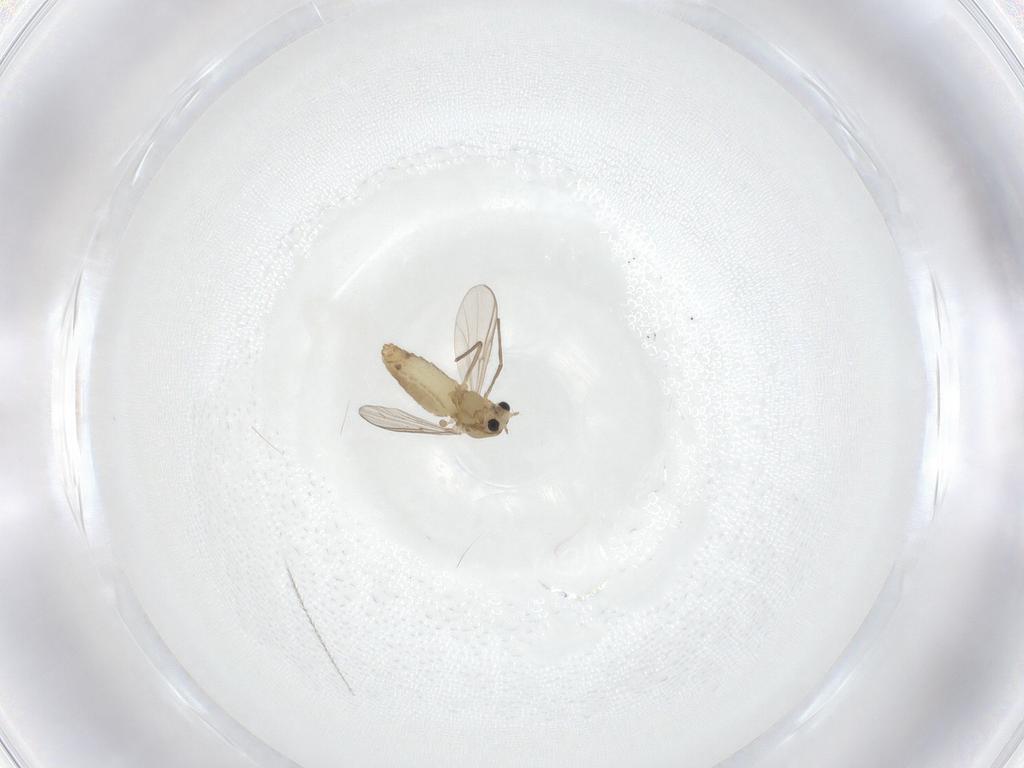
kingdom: Animalia
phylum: Arthropoda
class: Insecta
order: Diptera
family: Chironomidae
